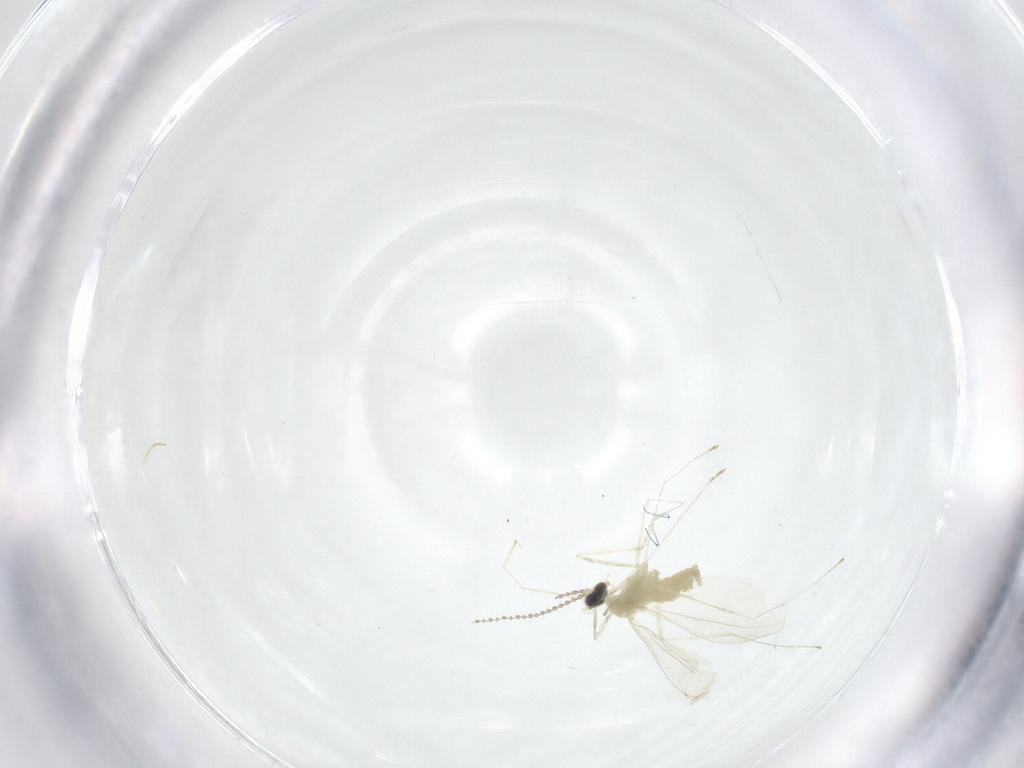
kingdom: Animalia
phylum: Arthropoda
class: Insecta
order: Diptera
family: Cecidomyiidae
